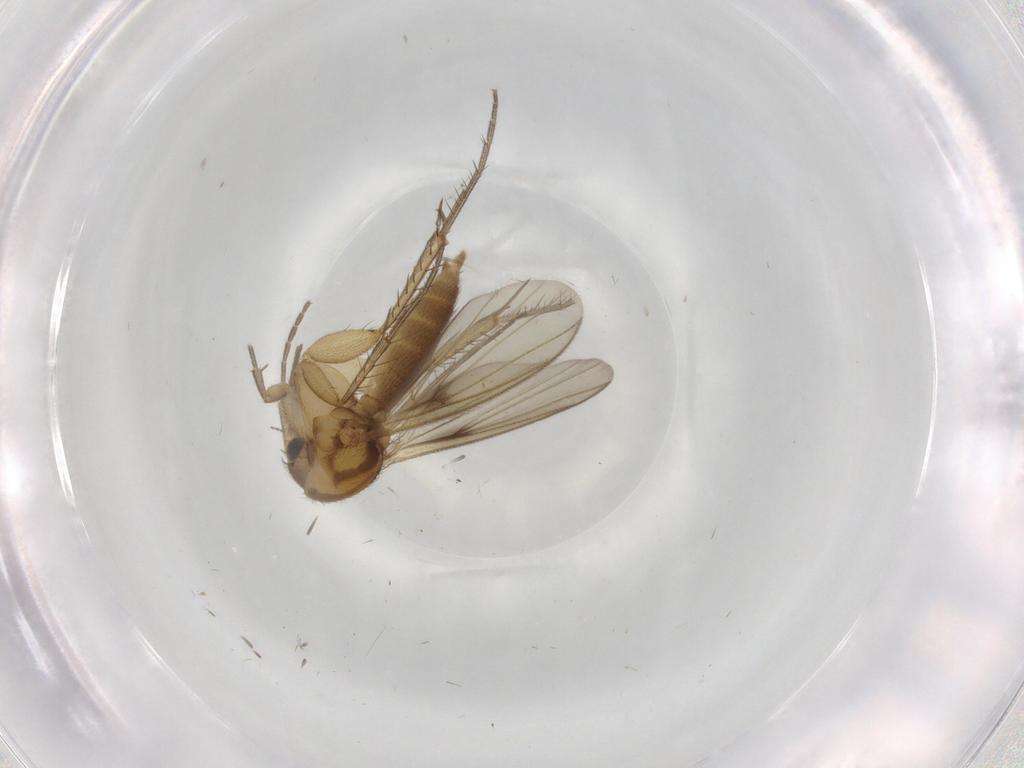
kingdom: Animalia
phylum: Arthropoda
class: Insecta
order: Diptera
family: Mycetophilidae
